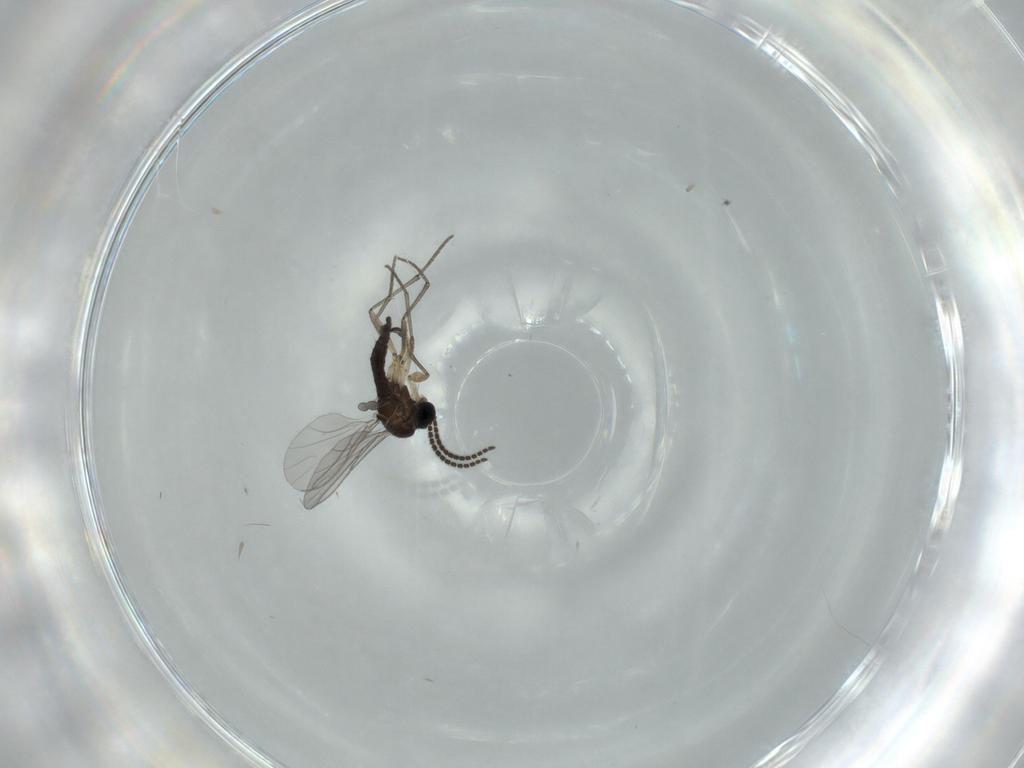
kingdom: Animalia
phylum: Arthropoda
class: Insecta
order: Diptera
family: Sciaridae
